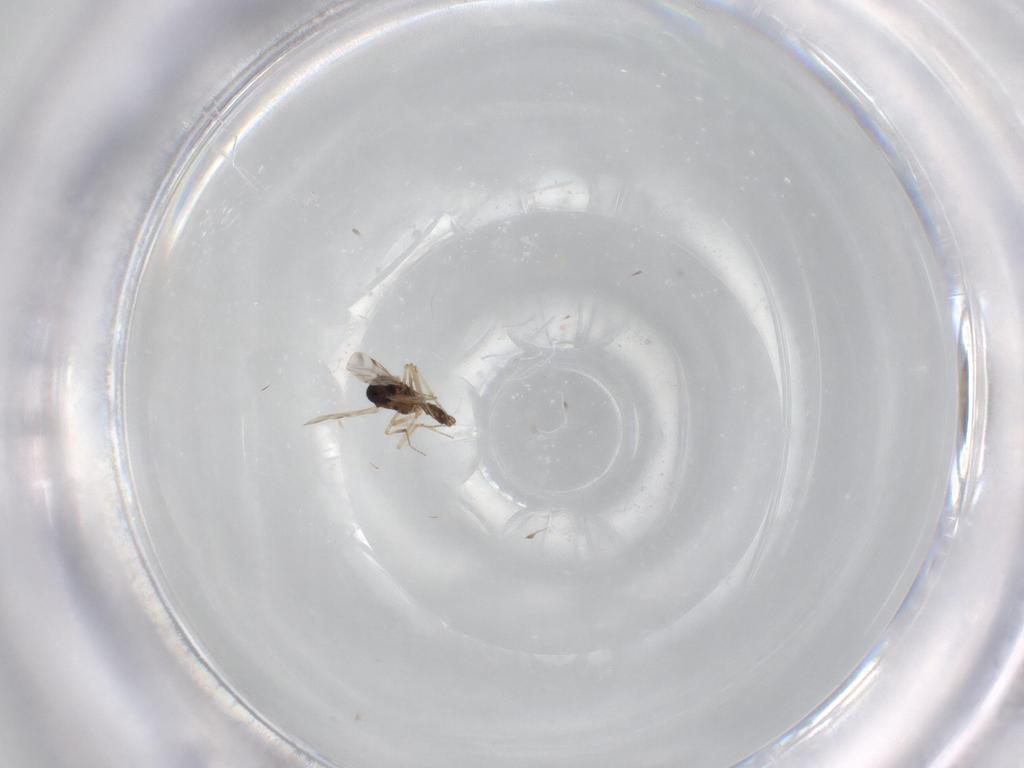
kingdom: Animalia
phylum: Arthropoda
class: Insecta
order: Diptera
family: Ceratopogonidae
